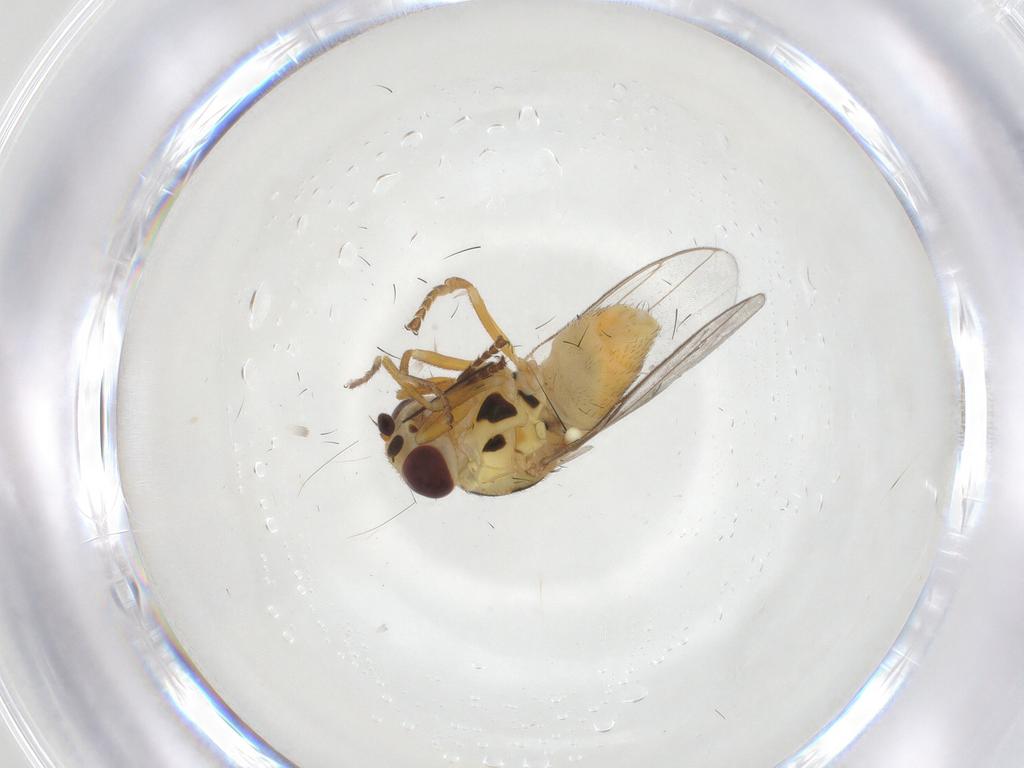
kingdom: Animalia
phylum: Arthropoda
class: Insecta
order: Diptera
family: Chloropidae
